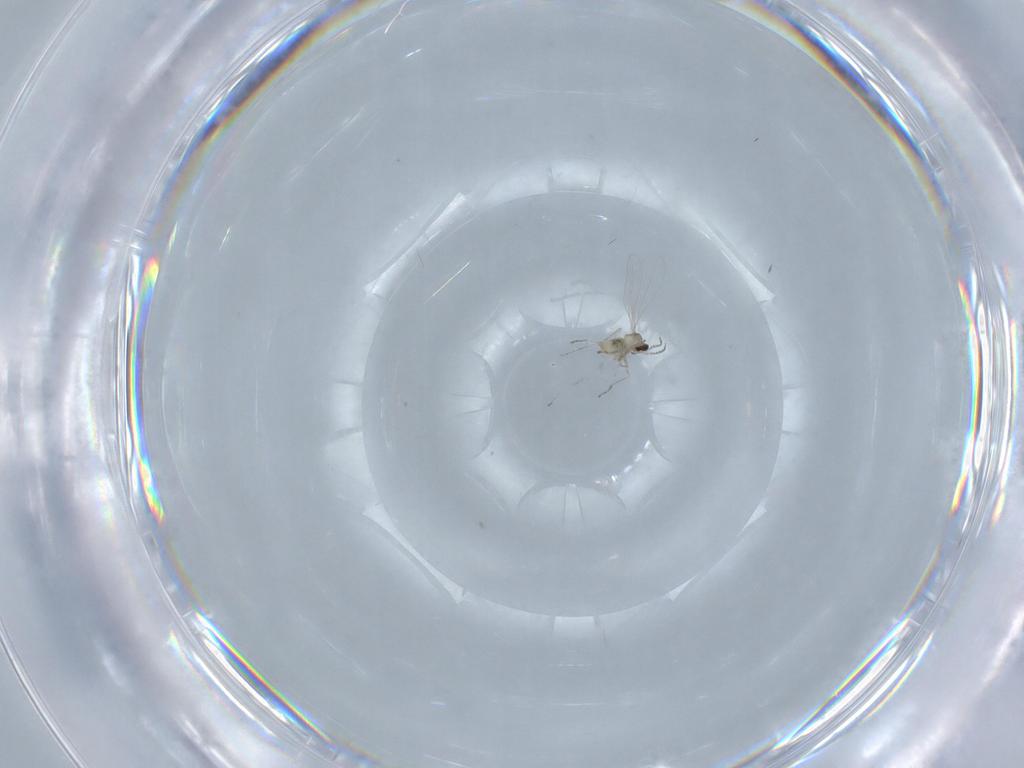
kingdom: Animalia
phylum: Arthropoda
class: Insecta
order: Diptera
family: Cecidomyiidae
